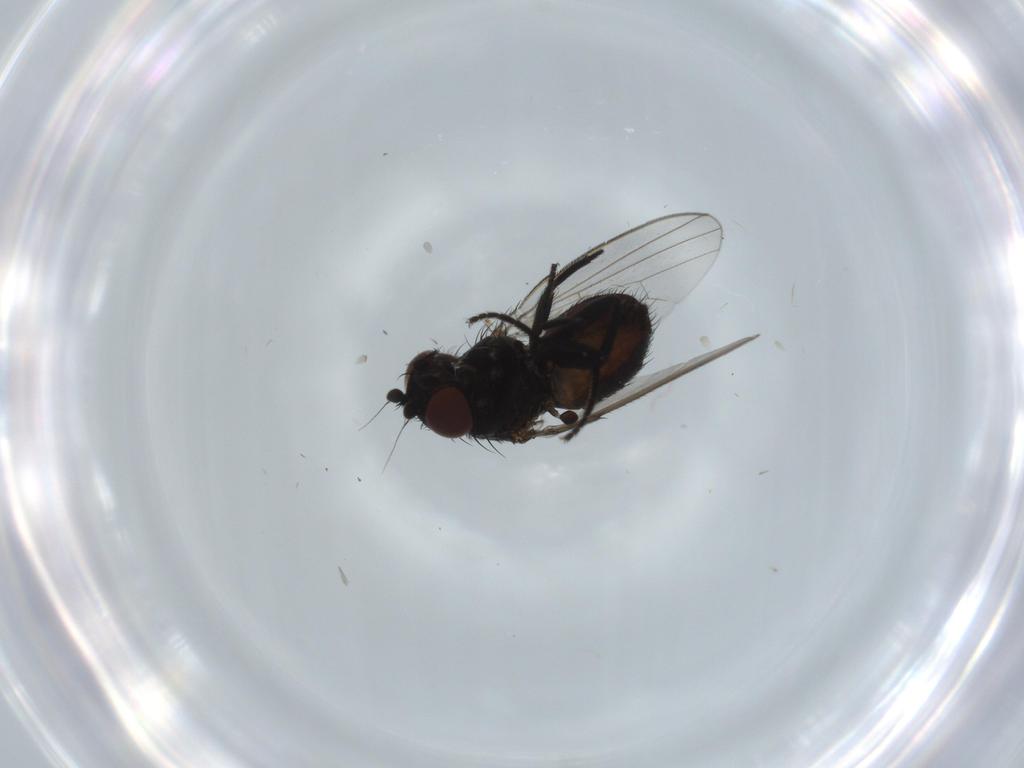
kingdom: Animalia
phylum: Arthropoda
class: Insecta
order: Diptera
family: Milichiidae
